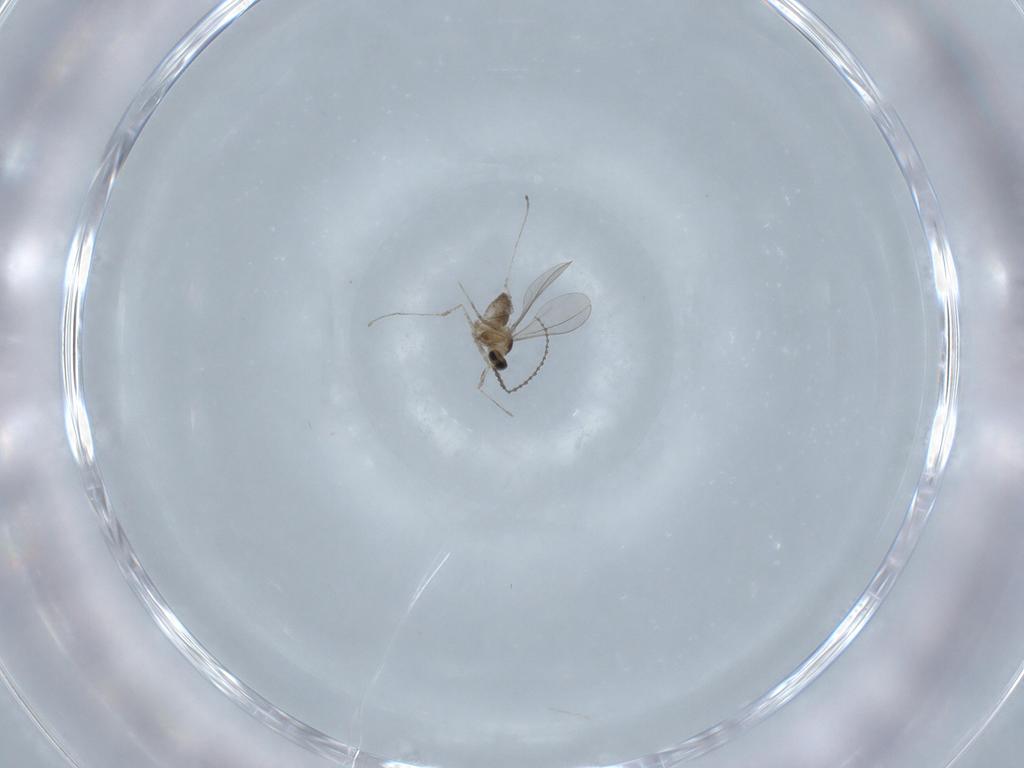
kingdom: Animalia
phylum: Arthropoda
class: Insecta
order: Diptera
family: Cecidomyiidae
